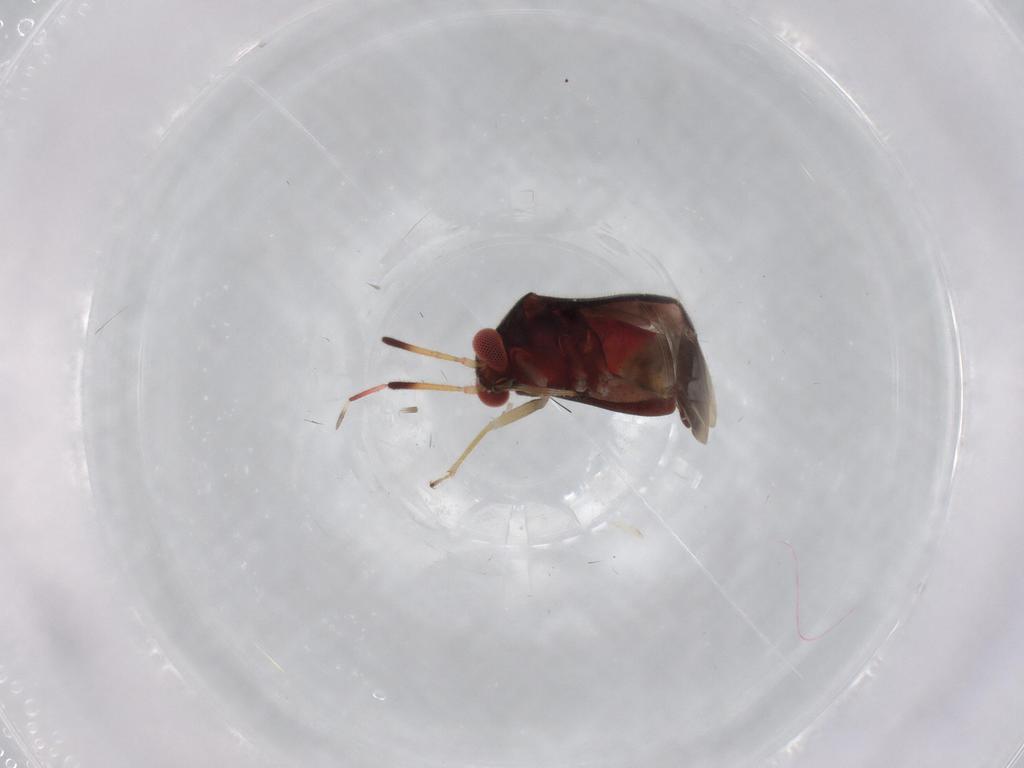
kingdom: Animalia
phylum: Arthropoda
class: Insecta
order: Hemiptera
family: Miridae
